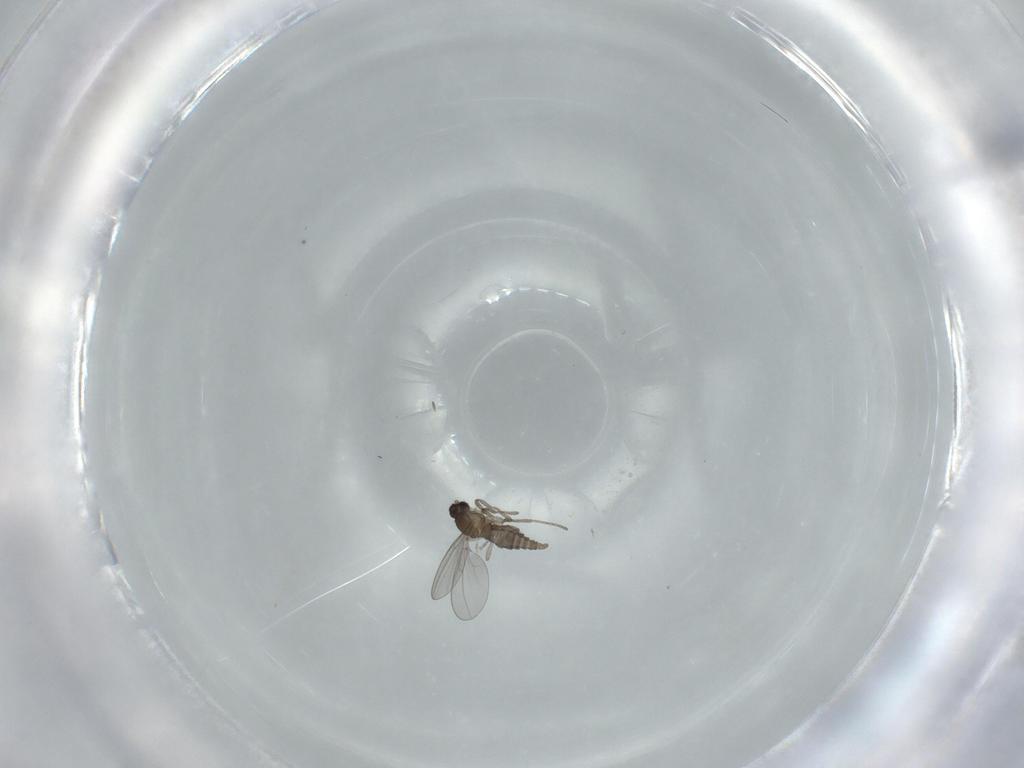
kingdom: Animalia
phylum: Arthropoda
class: Insecta
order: Diptera
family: Cecidomyiidae
